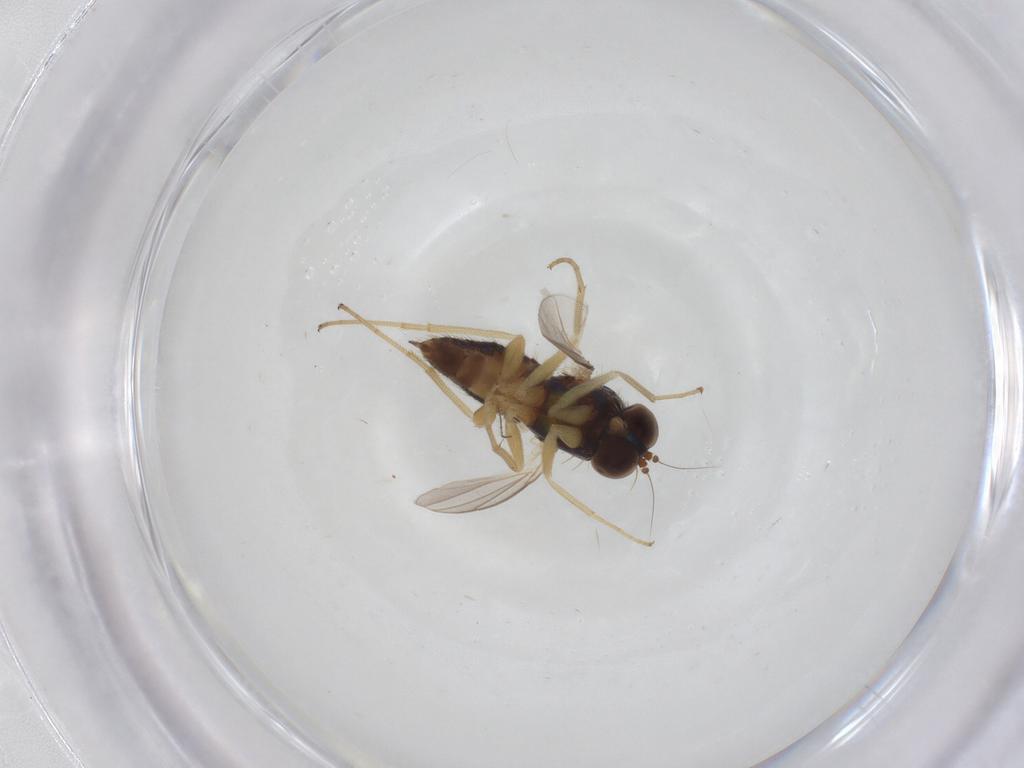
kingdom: Animalia
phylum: Arthropoda
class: Insecta
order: Diptera
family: Dolichopodidae
